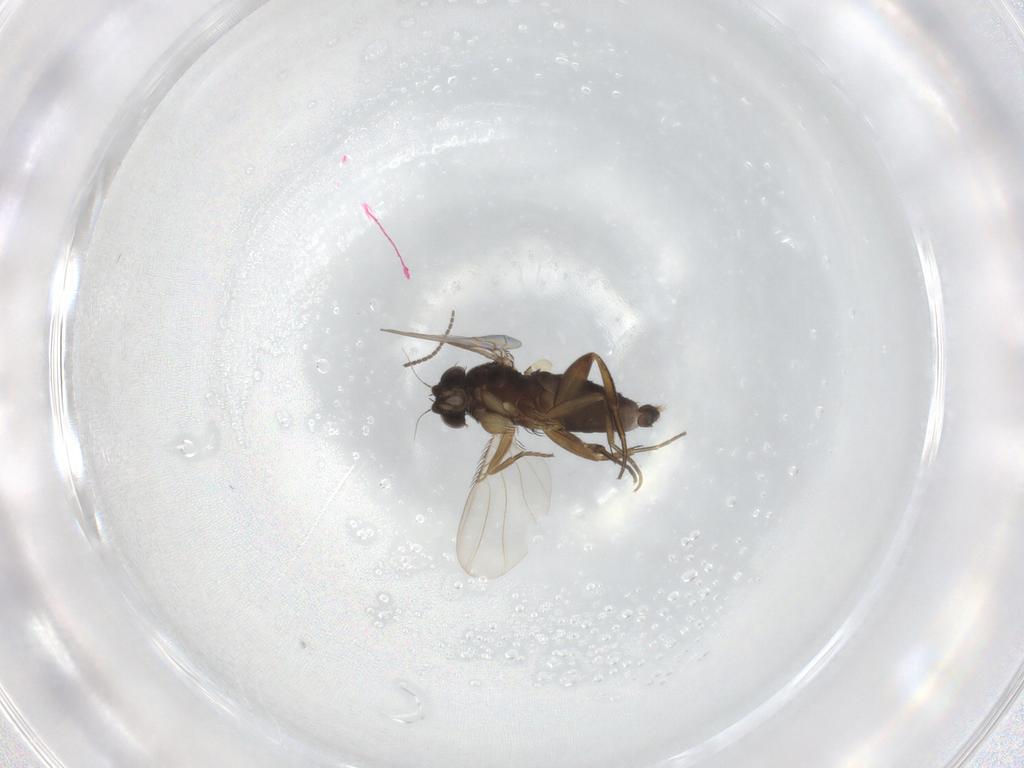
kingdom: Animalia
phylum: Arthropoda
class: Insecta
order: Diptera
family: Sciaridae
